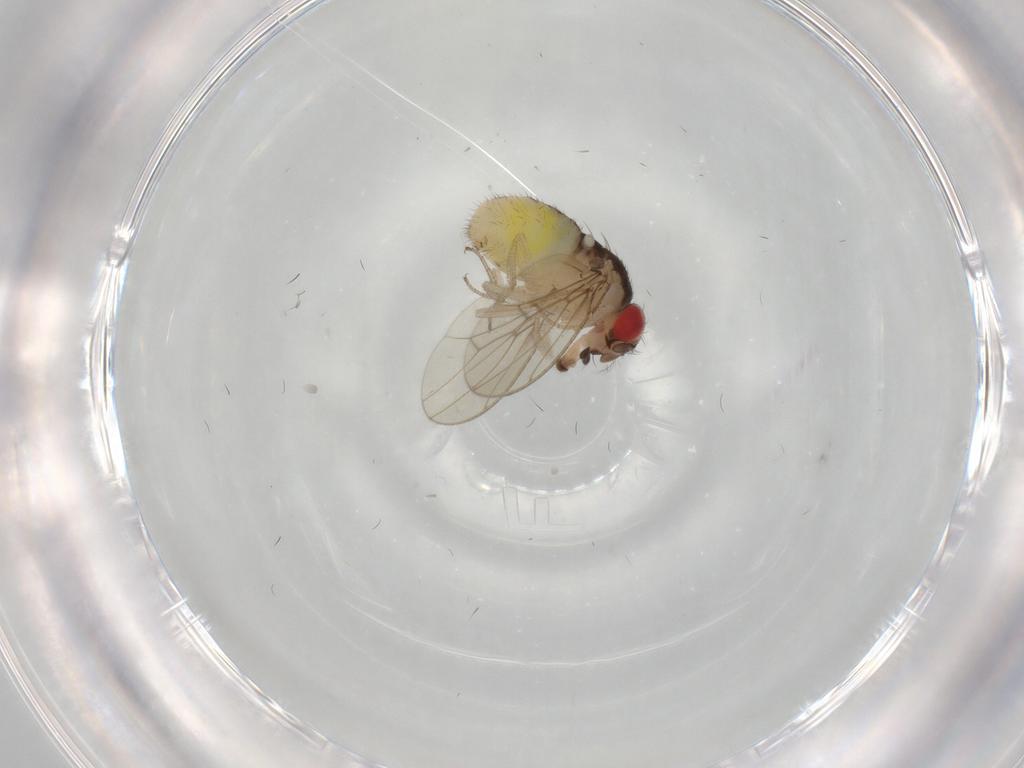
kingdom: Animalia
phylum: Arthropoda
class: Insecta
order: Diptera
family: Drosophilidae
